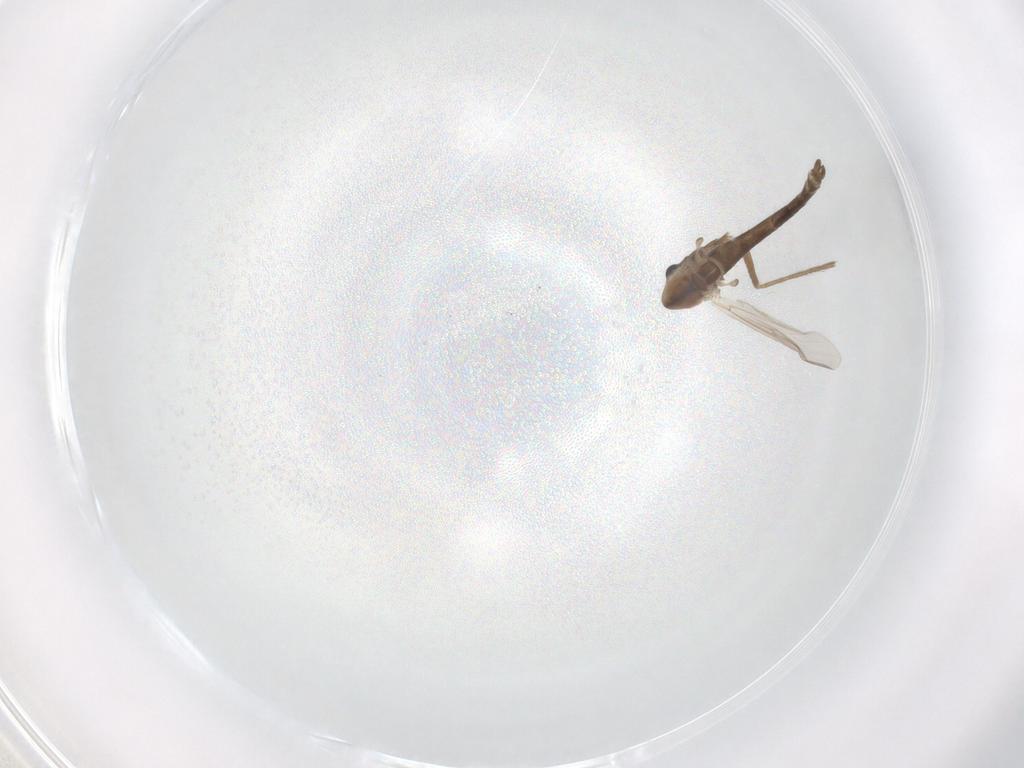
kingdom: Animalia
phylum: Arthropoda
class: Insecta
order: Diptera
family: Chironomidae
